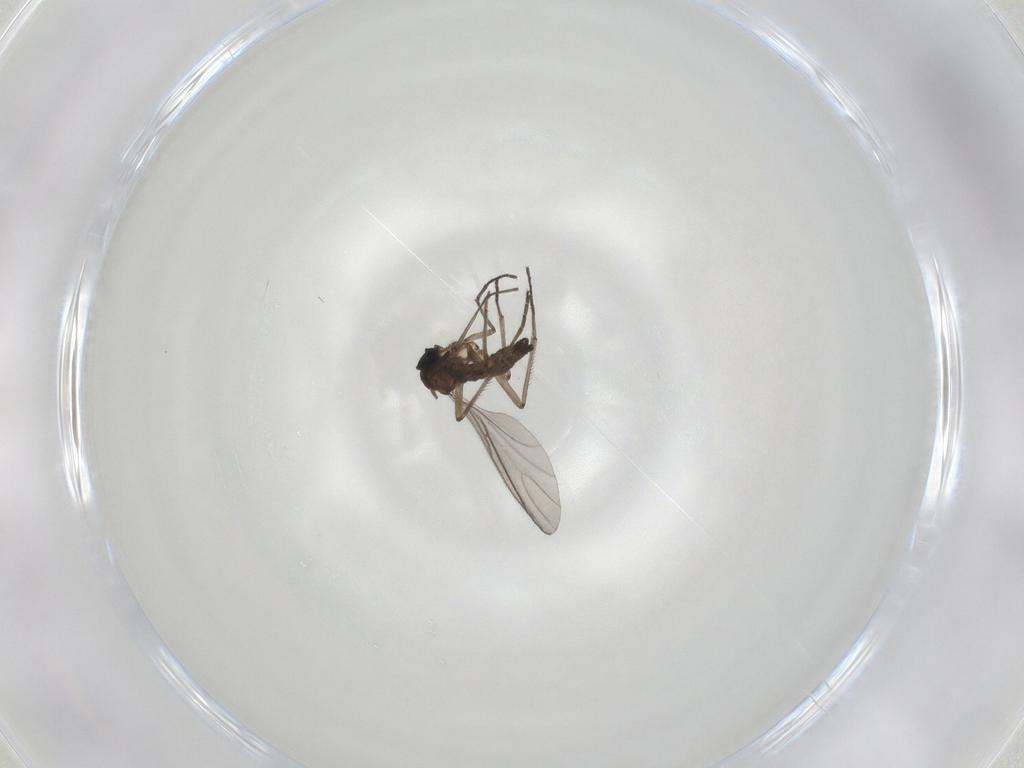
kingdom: Animalia
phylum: Arthropoda
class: Insecta
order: Diptera
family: Sciaridae
